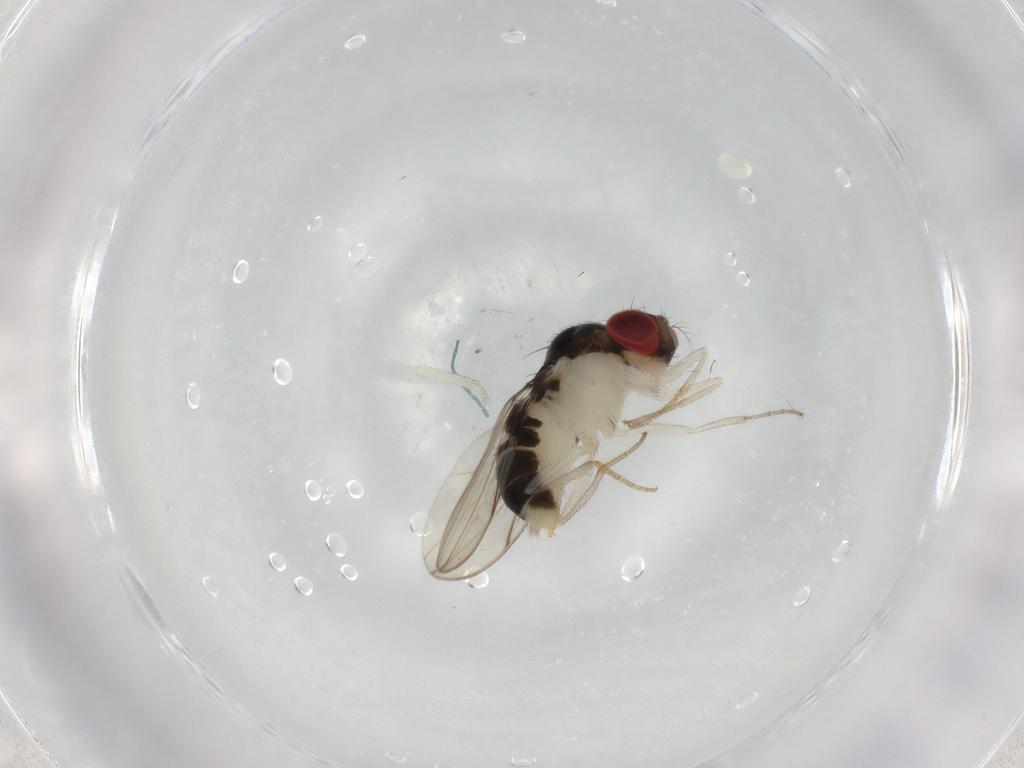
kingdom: Animalia
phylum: Arthropoda
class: Insecta
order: Diptera
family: Drosophilidae
